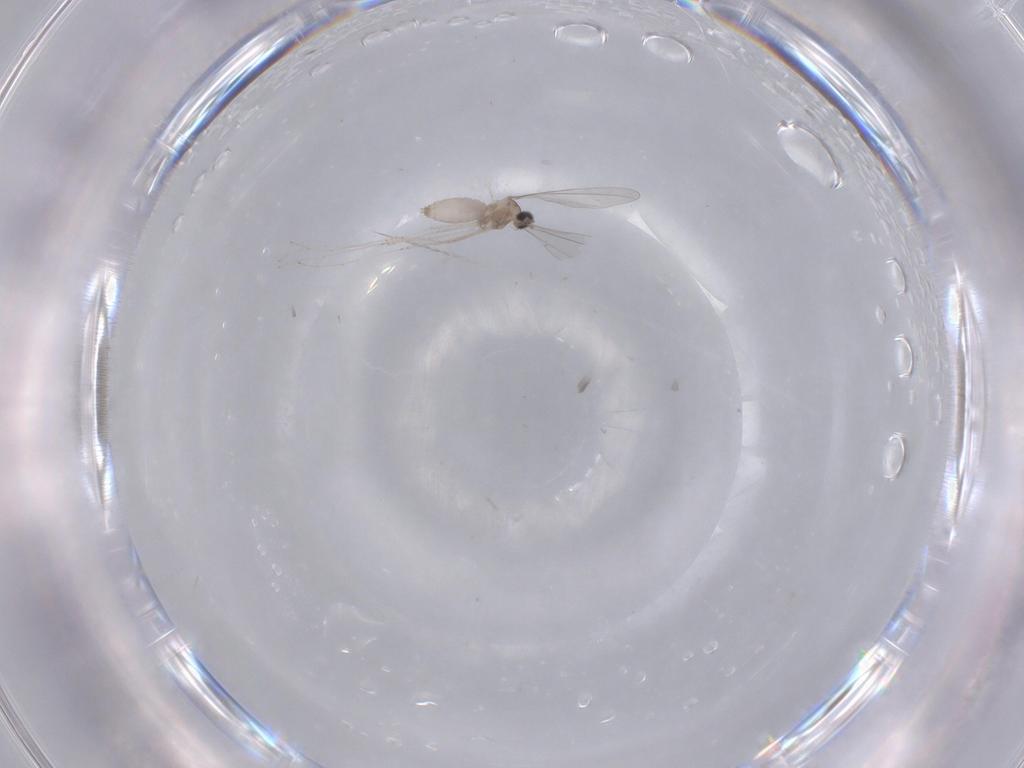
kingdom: Animalia
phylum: Arthropoda
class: Insecta
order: Diptera
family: Cecidomyiidae
